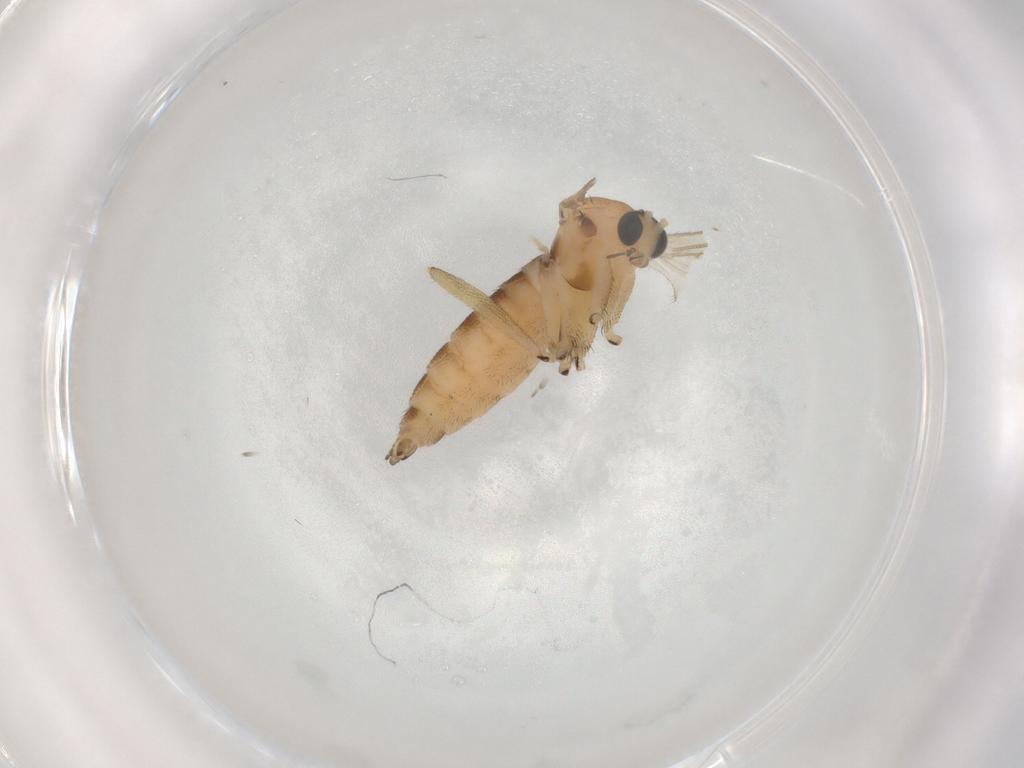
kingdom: Animalia
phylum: Arthropoda
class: Insecta
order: Diptera
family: Sciaridae
